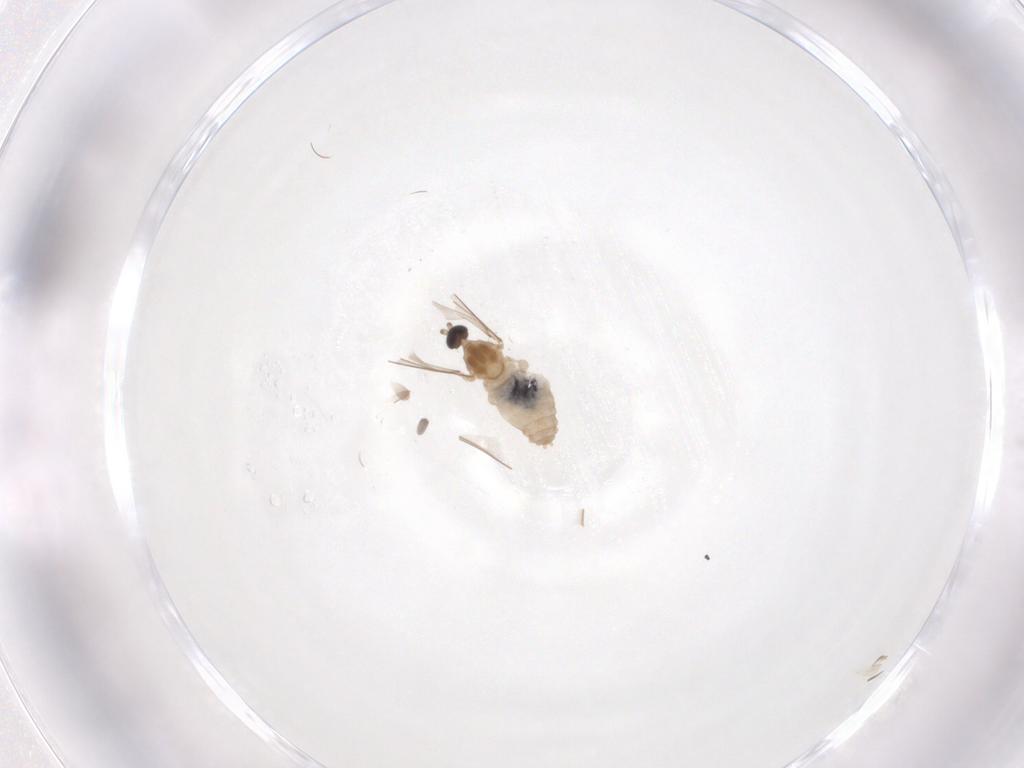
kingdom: Animalia
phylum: Arthropoda
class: Insecta
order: Diptera
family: Cecidomyiidae
